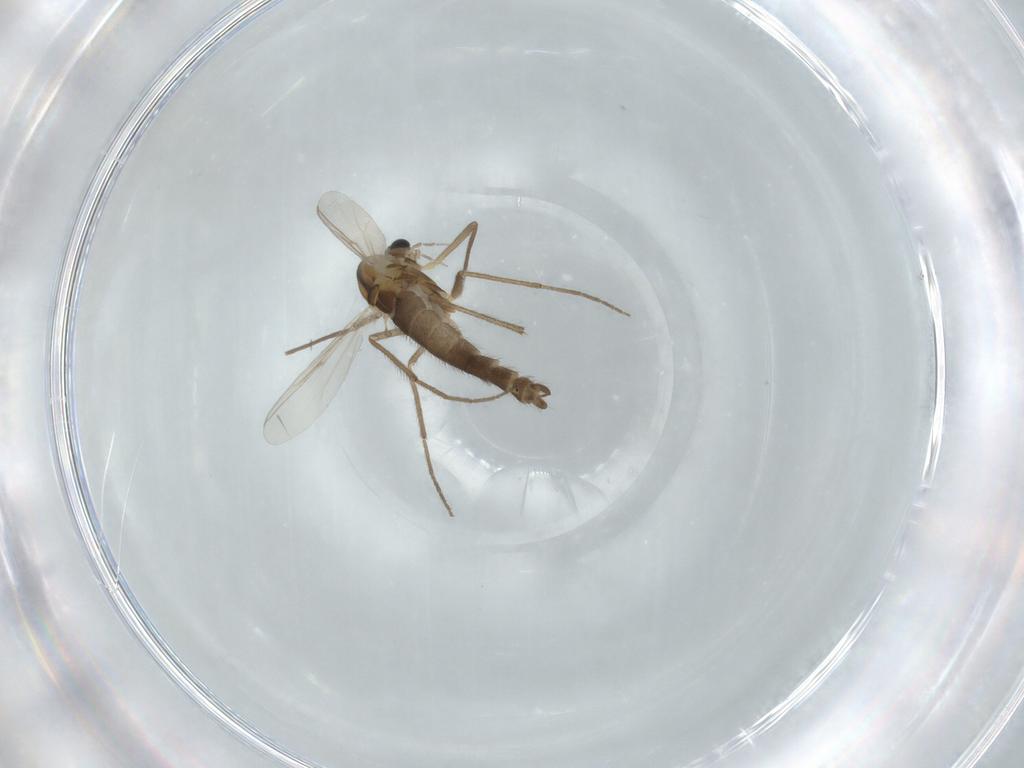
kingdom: Animalia
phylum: Arthropoda
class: Insecta
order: Diptera
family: Chironomidae
